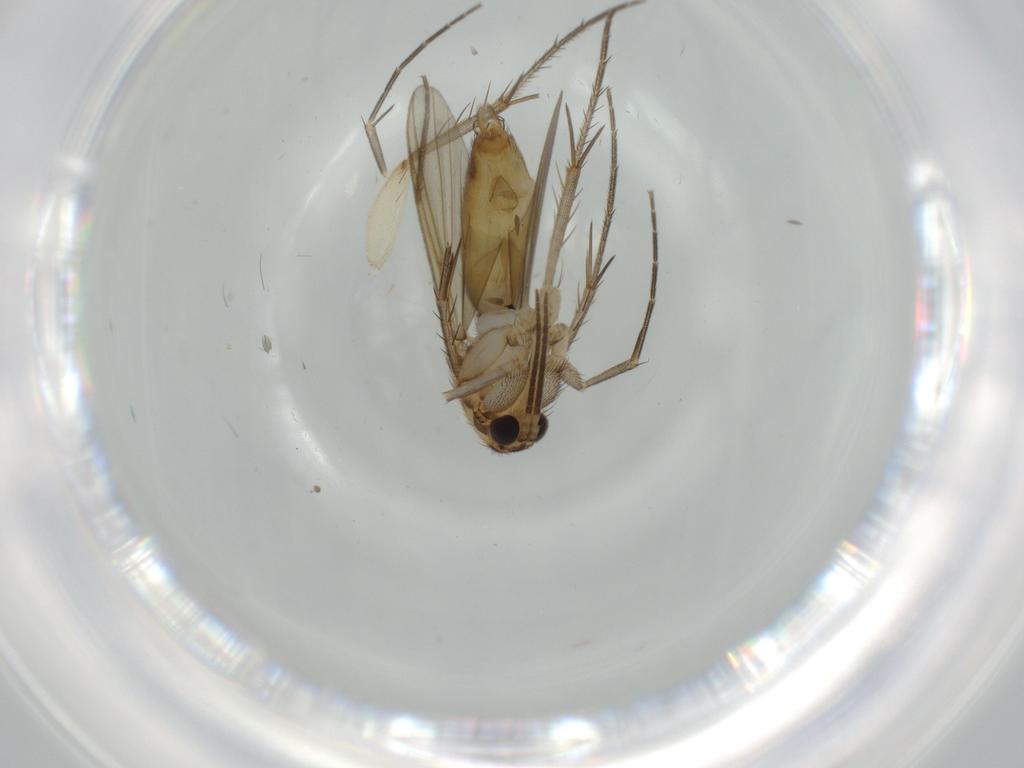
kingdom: Animalia
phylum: Arthropoda
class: Insecta
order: Diptera
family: Sciaridae
